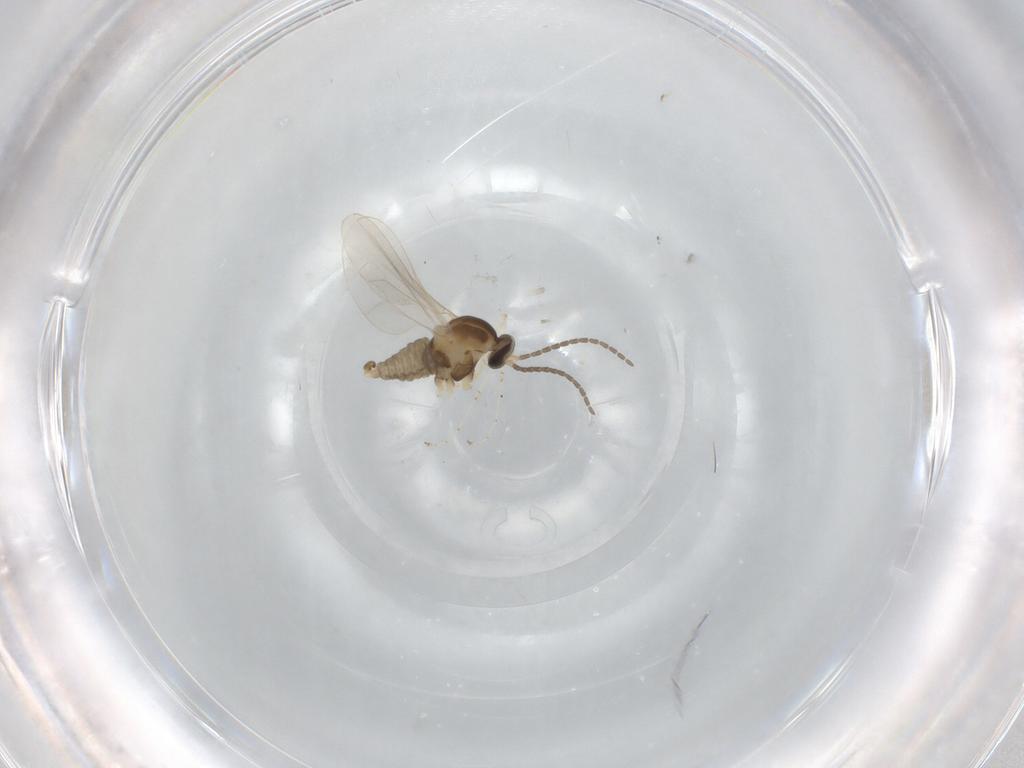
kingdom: Animalia
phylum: Arthropoda
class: Insecta
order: Diptera
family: Cecidomyiidae
